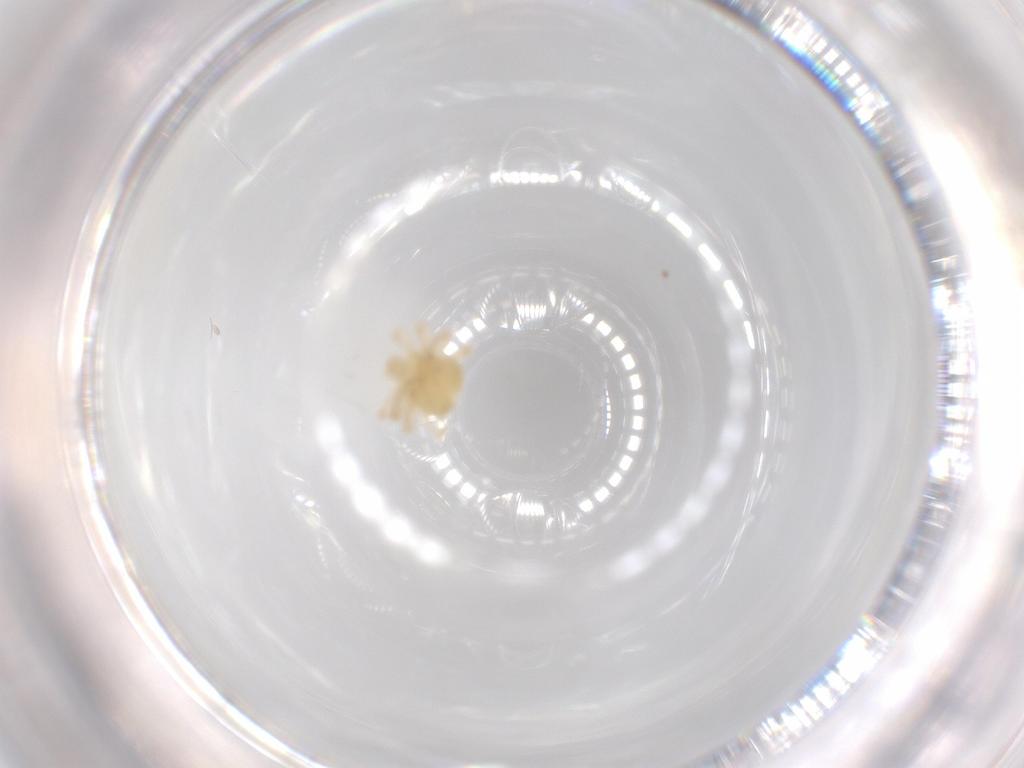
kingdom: Animalia
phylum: Arthropoda
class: Arachnida
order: Trombidiformes
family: Anystidae
